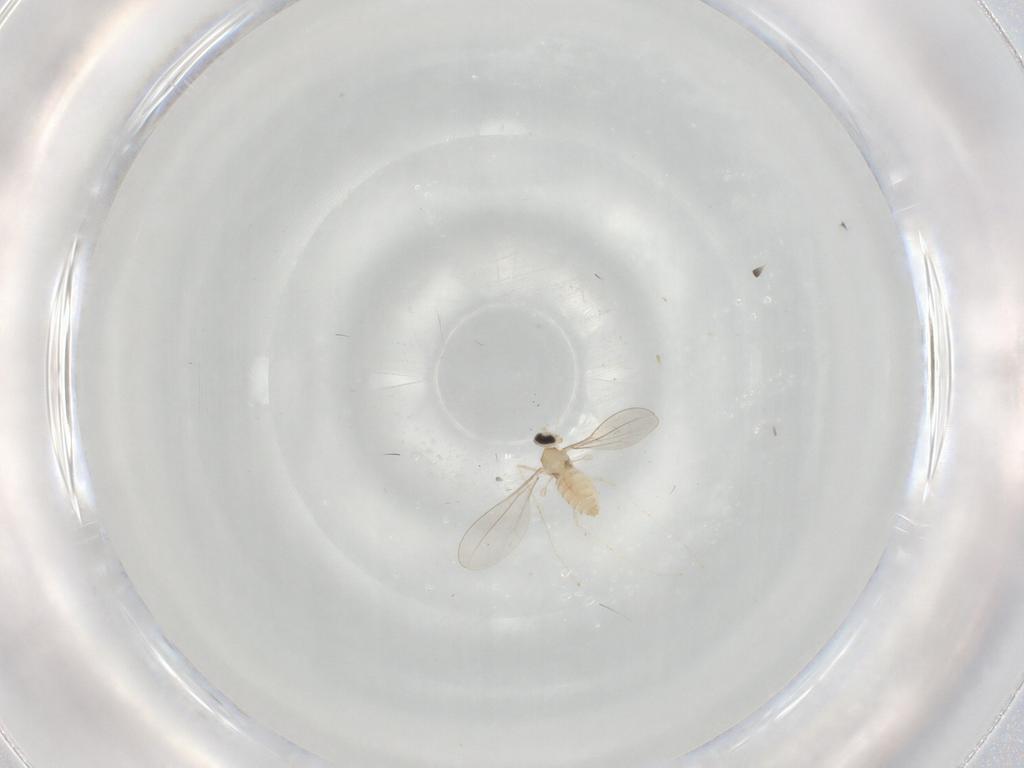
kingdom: Animalia
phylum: Arthropoda
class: Insecta
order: Diptera
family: Cecidomyiidae
